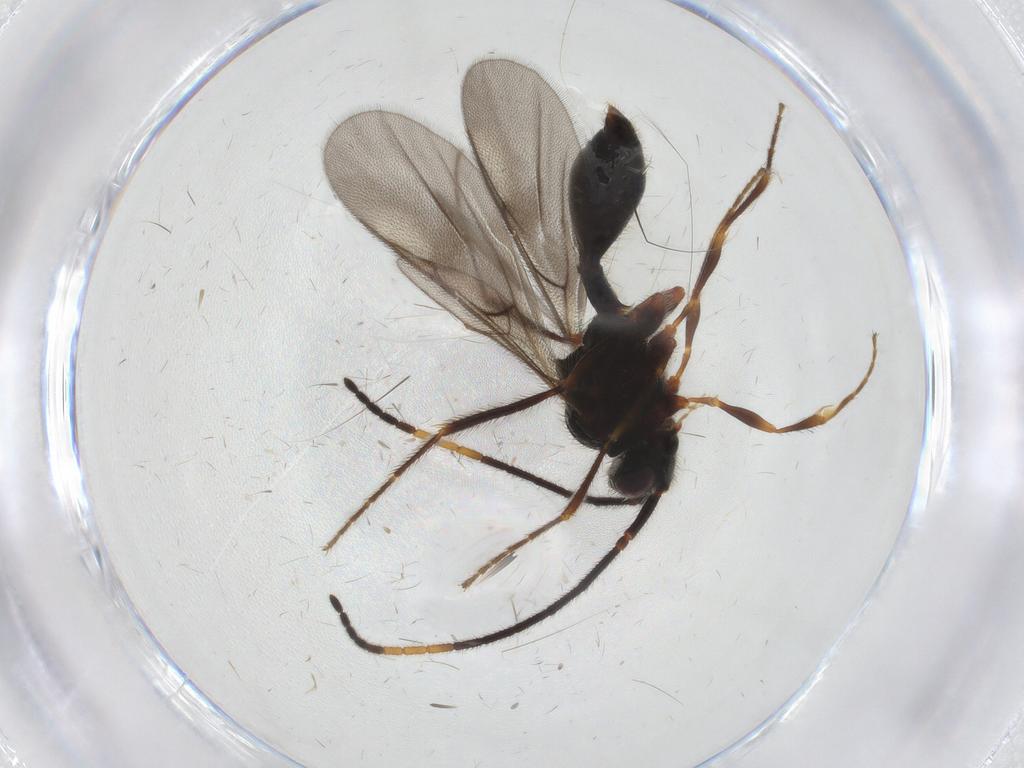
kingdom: Animalia
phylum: Arthropoda
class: Insecta
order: Hymenoptera
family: Diapriidae
